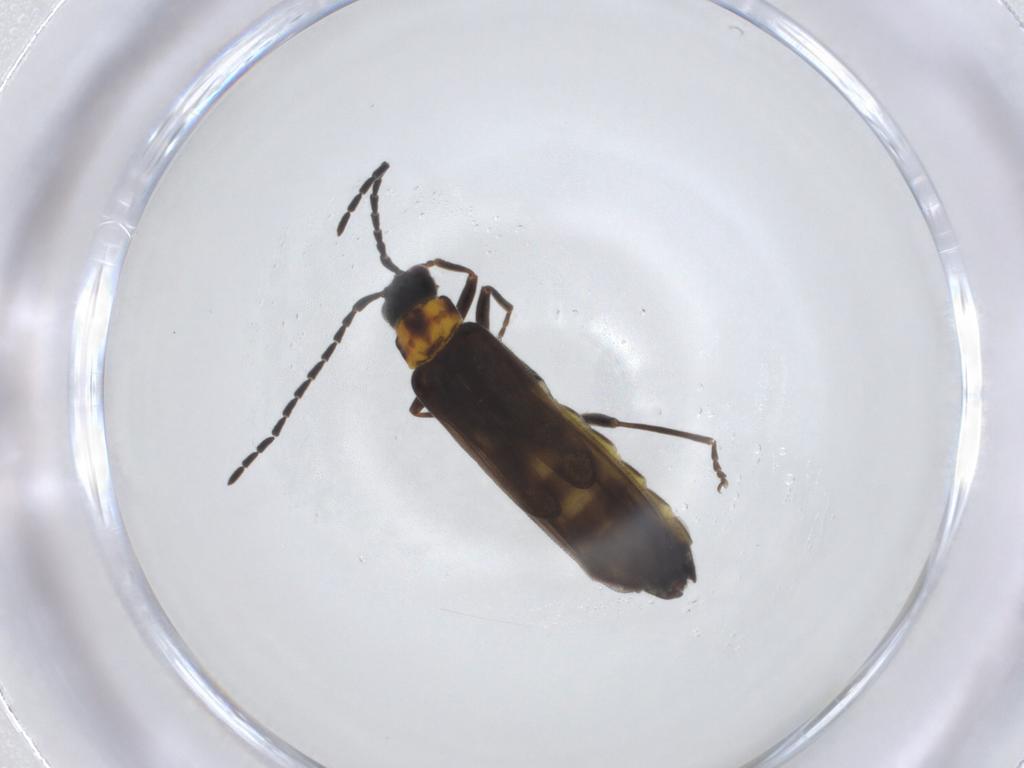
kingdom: Animalia
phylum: Arthropoda
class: Insecta
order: Coleoptera
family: Cantharidae
